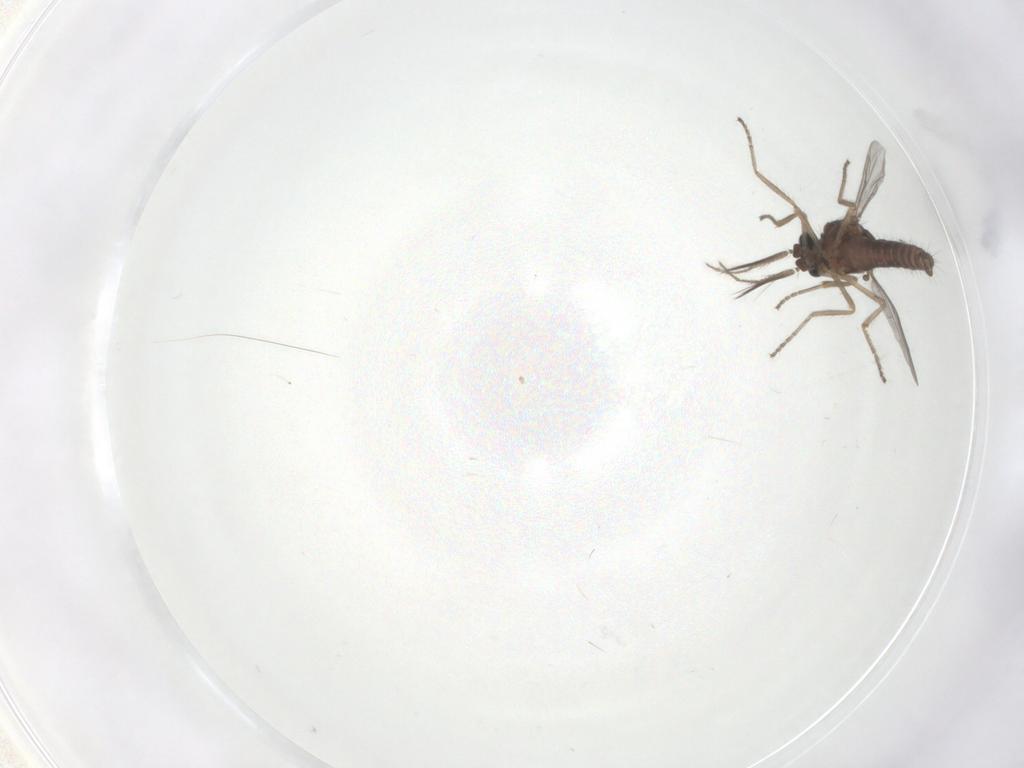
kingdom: Animalia
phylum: Arthropoda
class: Insecta
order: Diptera
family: Ceratopogonidae
